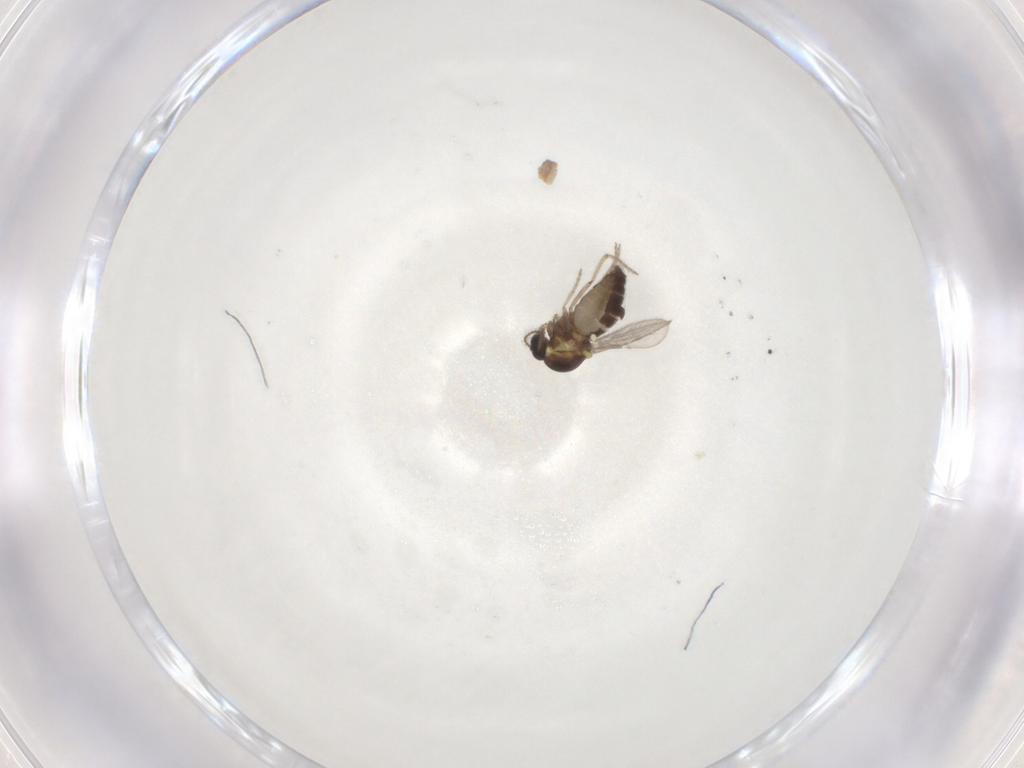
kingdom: Animalia
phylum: Arthropoda
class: Insecta
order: Diptera
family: Ceratopogonidae
